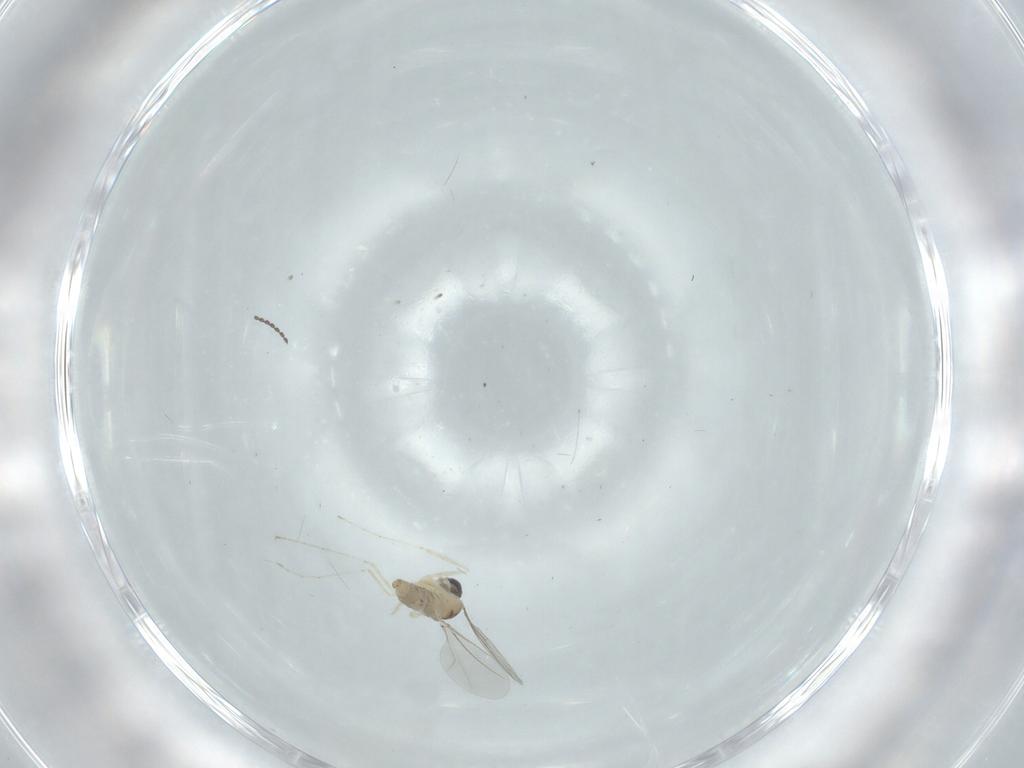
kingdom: Animalia
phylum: Arthropoda
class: Insecta
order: Diptera
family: Cecidomyiidae
